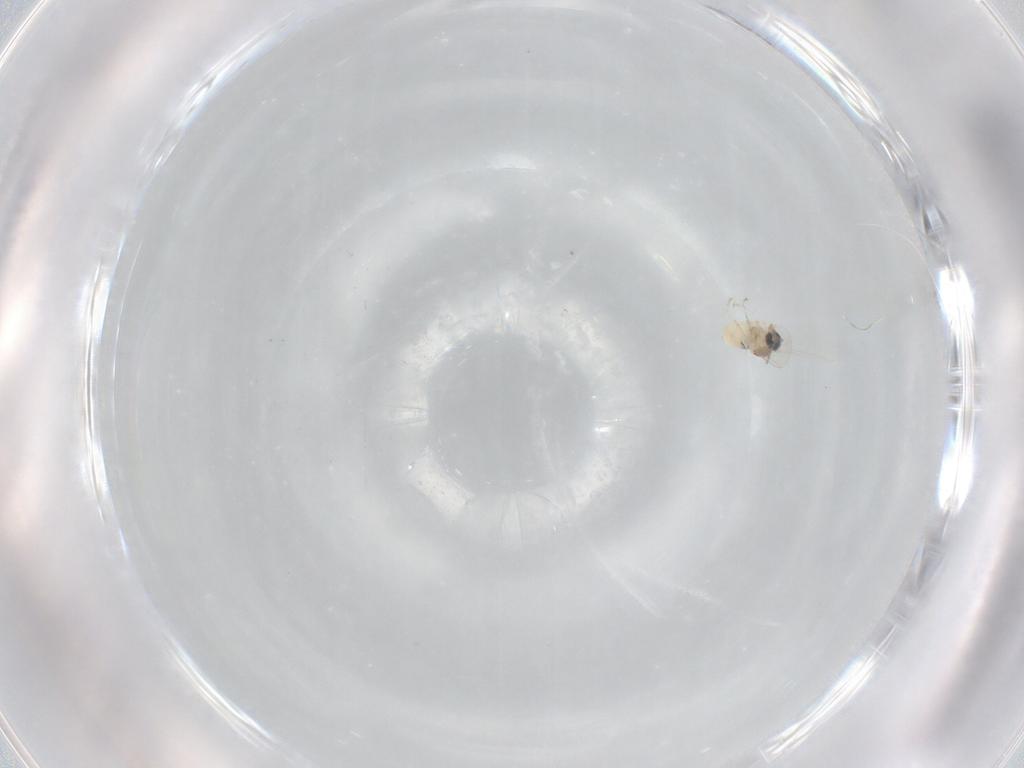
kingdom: Animalia
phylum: Arthropoda
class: Insecta
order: Diptera
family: Cecidomyiidae
